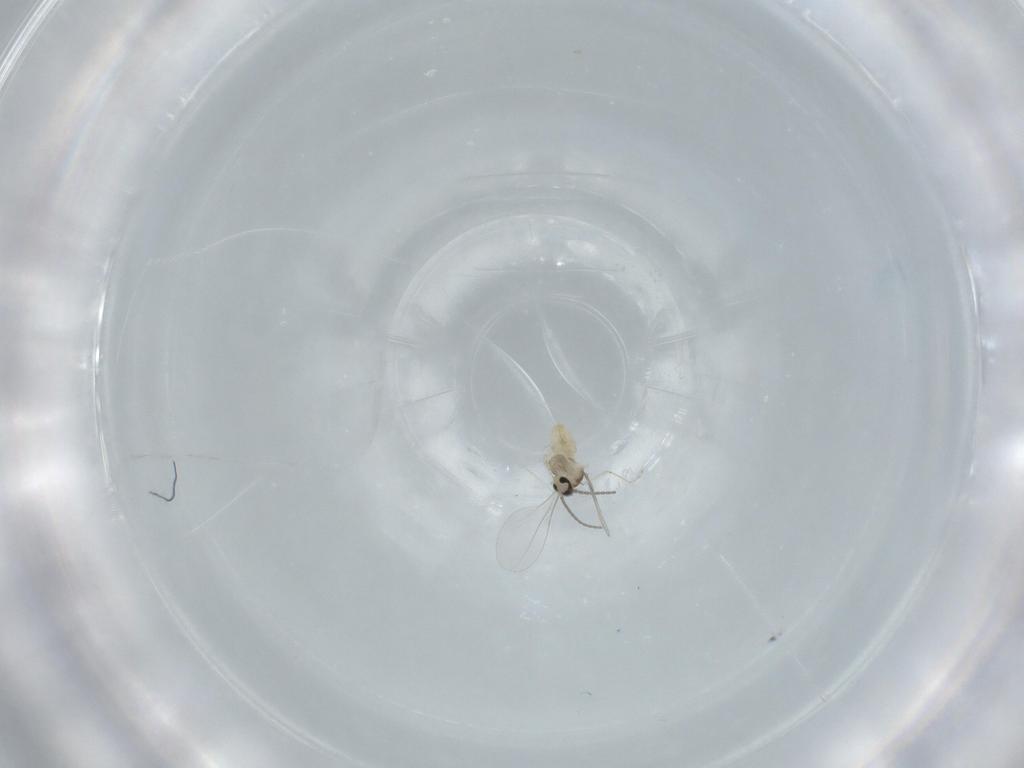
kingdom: Animalia
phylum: Arthropoda
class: Insecta
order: Diptera
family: Cecidomyiidae
